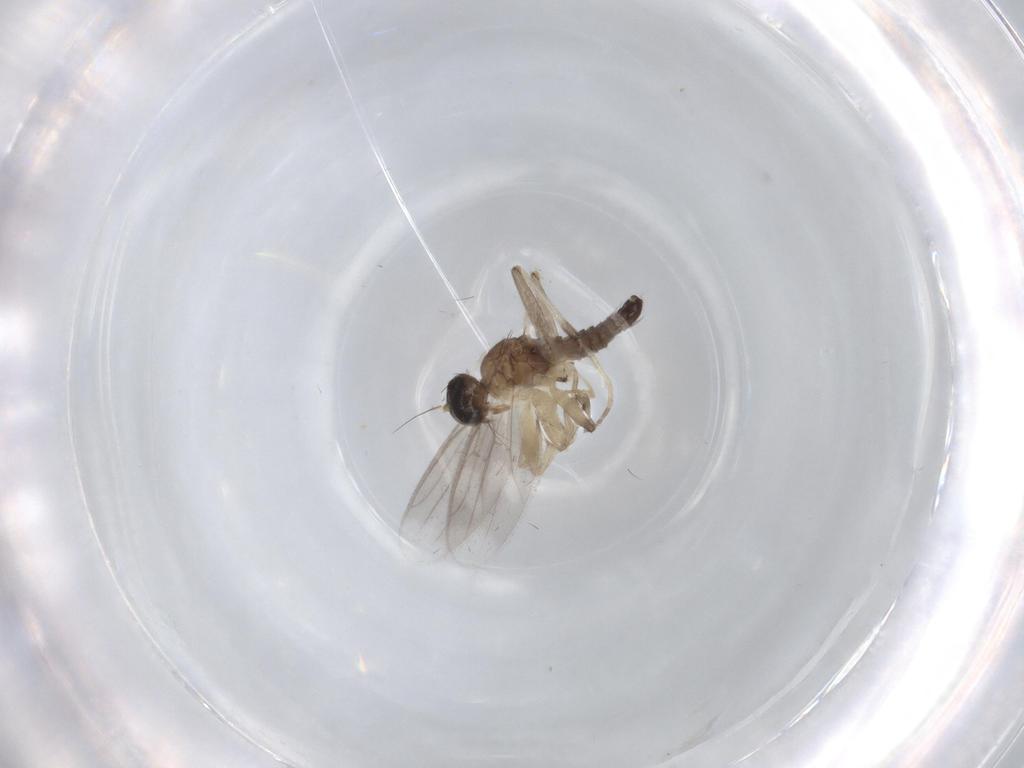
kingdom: Animalia
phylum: Arthropoda
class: Insecta
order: Diptera
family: Hybotidae
